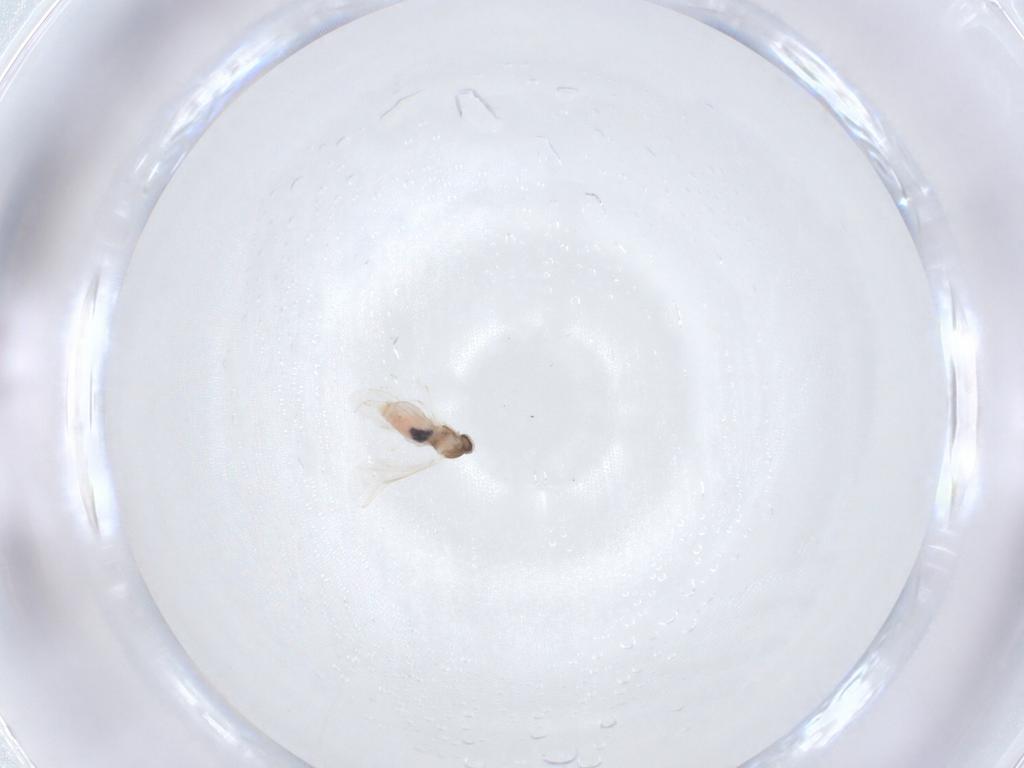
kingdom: Animalia
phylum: Arthropoda
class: Insecta
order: Diptera
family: Cecidomyiidae
